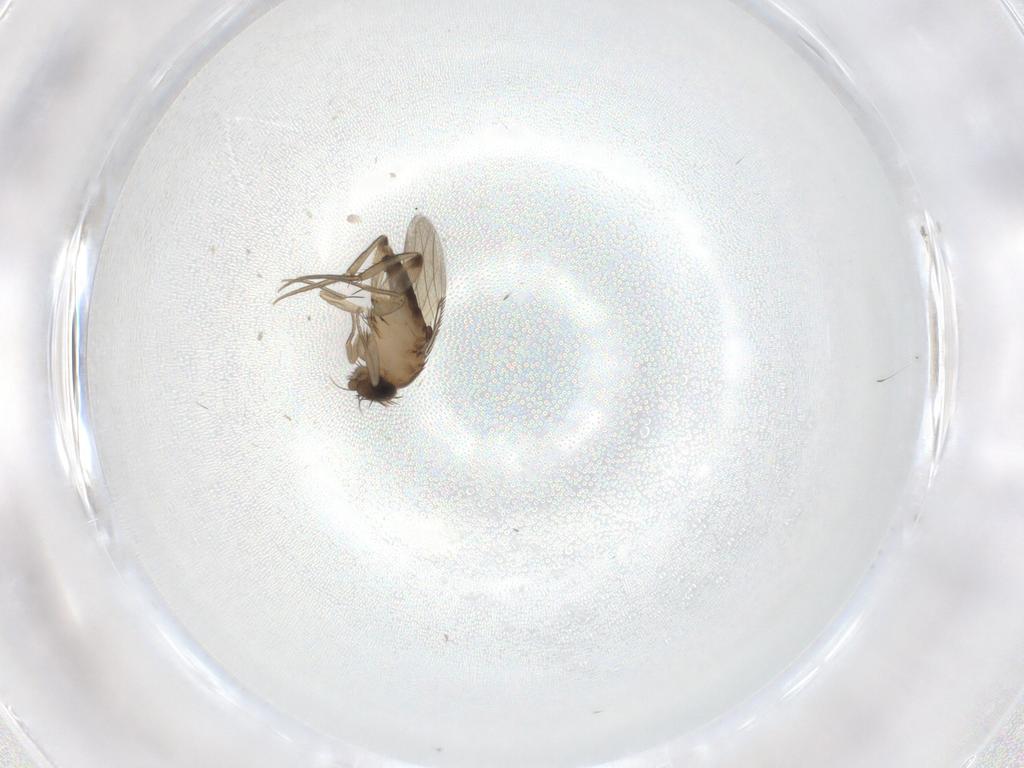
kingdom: Animalia
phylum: Arthropoda
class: Insecta
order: Diptera
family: Phoridae
